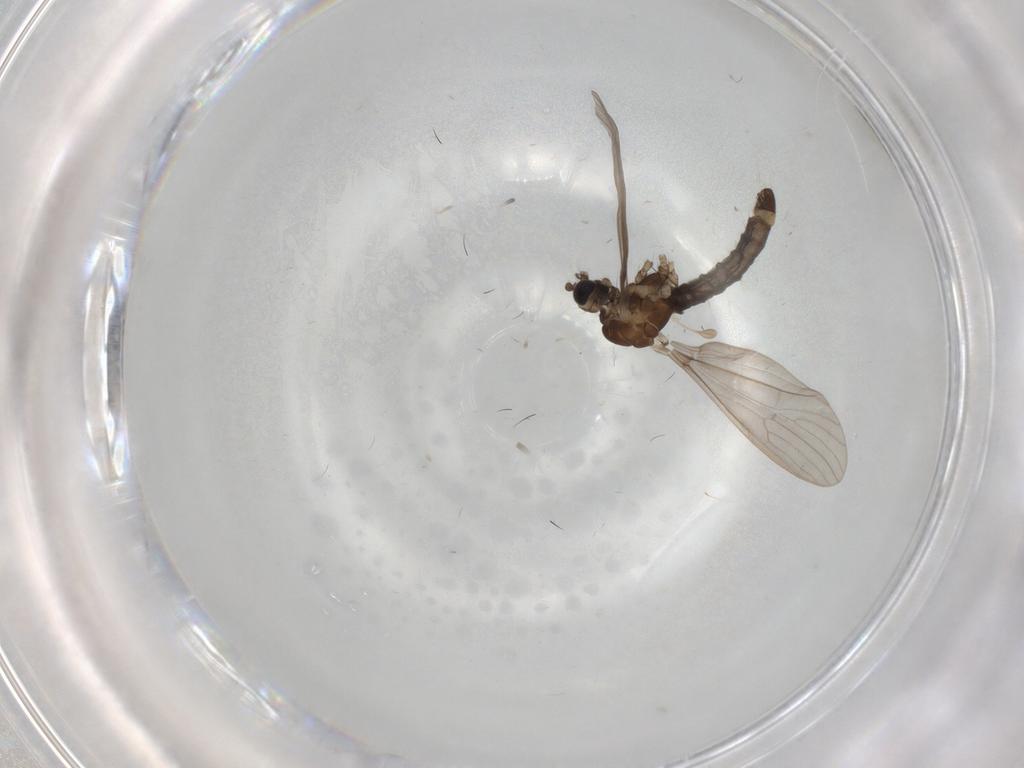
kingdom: Animalia
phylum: Arthropoda
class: Insecta
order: Diptera
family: Limoniidae
